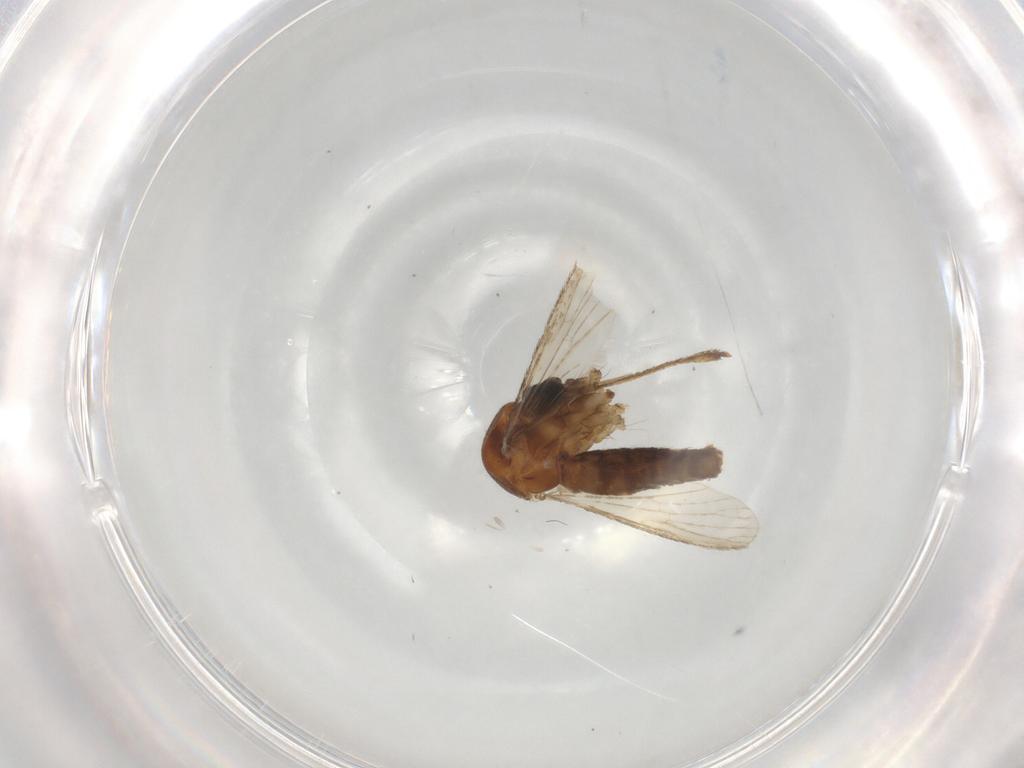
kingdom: Animalia
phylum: Arthropoda
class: Insecta
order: Diptera
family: Culicidae
